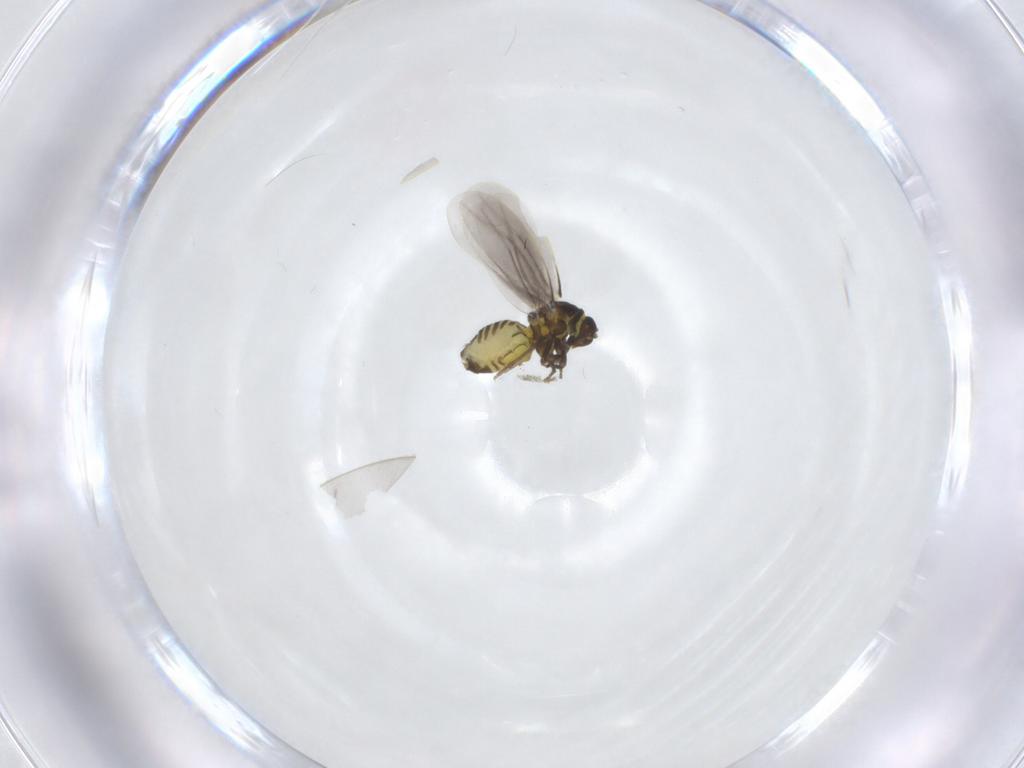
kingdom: Animalia
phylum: Arthropoda
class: Insecta
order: Hemiptera
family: Aleyrodidae
